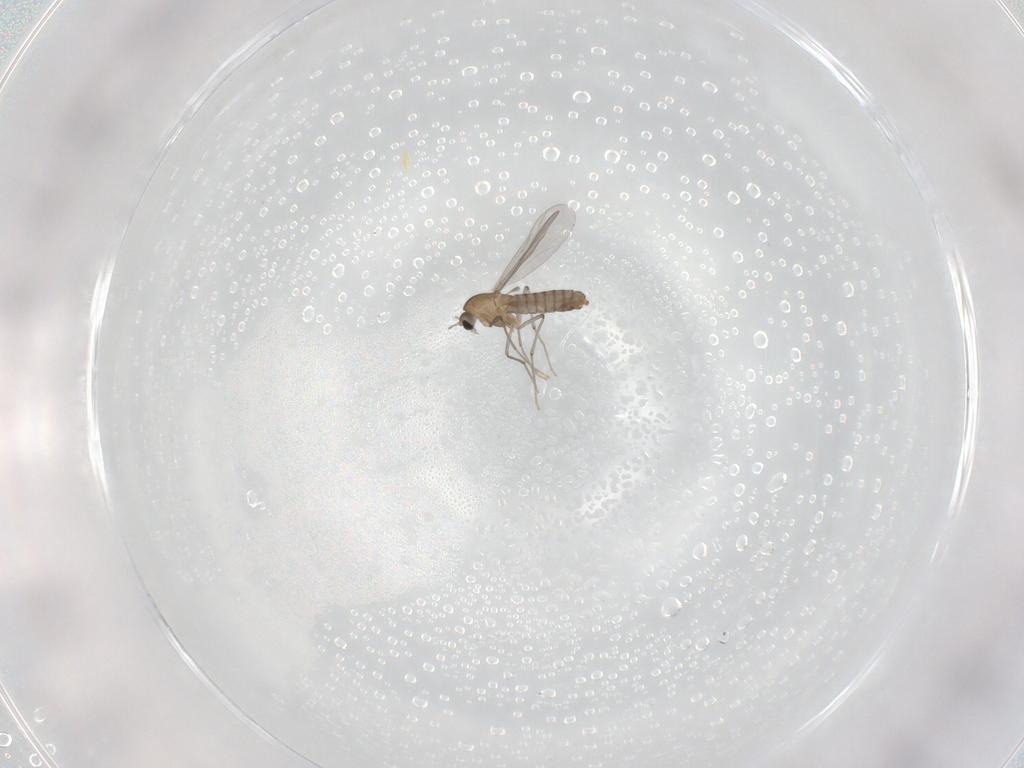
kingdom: Animalia
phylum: Arthropoda
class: Insecta
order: Diptera
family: Chironomidae
